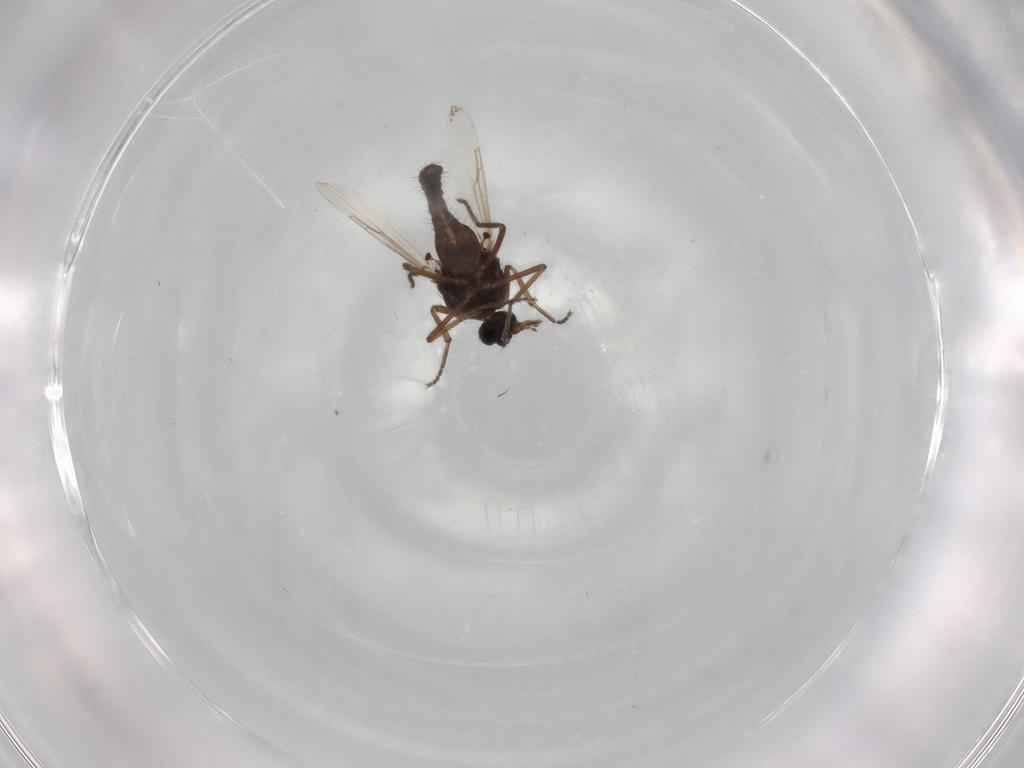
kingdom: Animalia
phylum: Arthropoda
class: Insecta
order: Diptera
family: Ceratopogonidae
